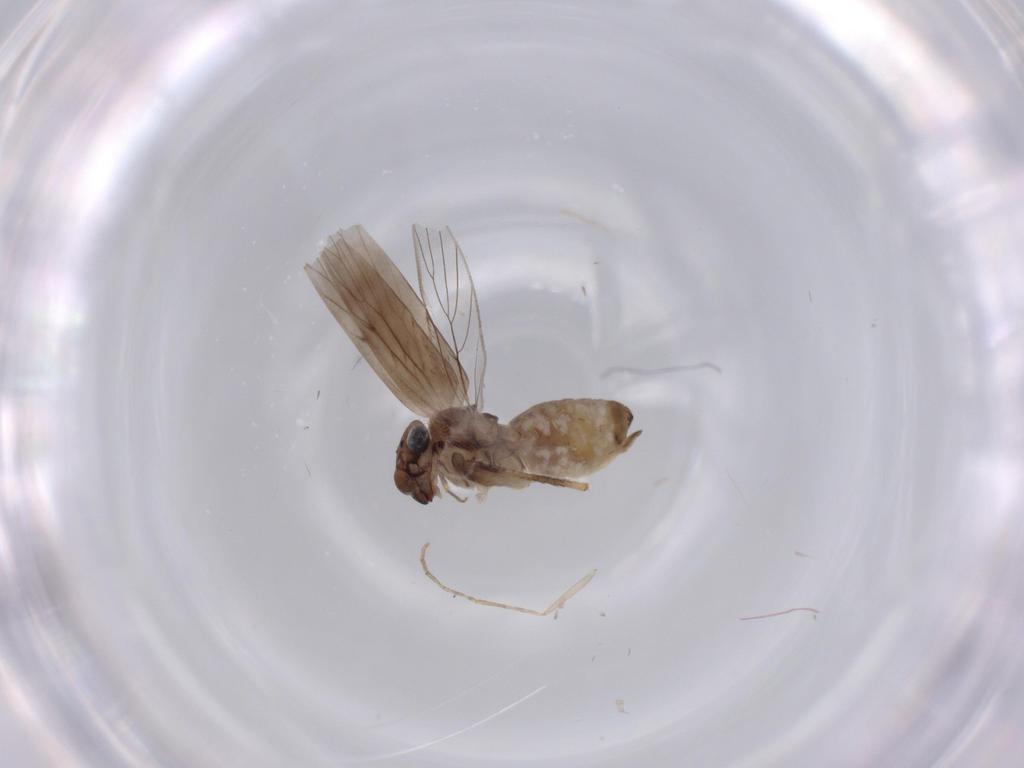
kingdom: Animalia
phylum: Arthropoda
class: Insecta
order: Psocodea
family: Lepidopsocidae
